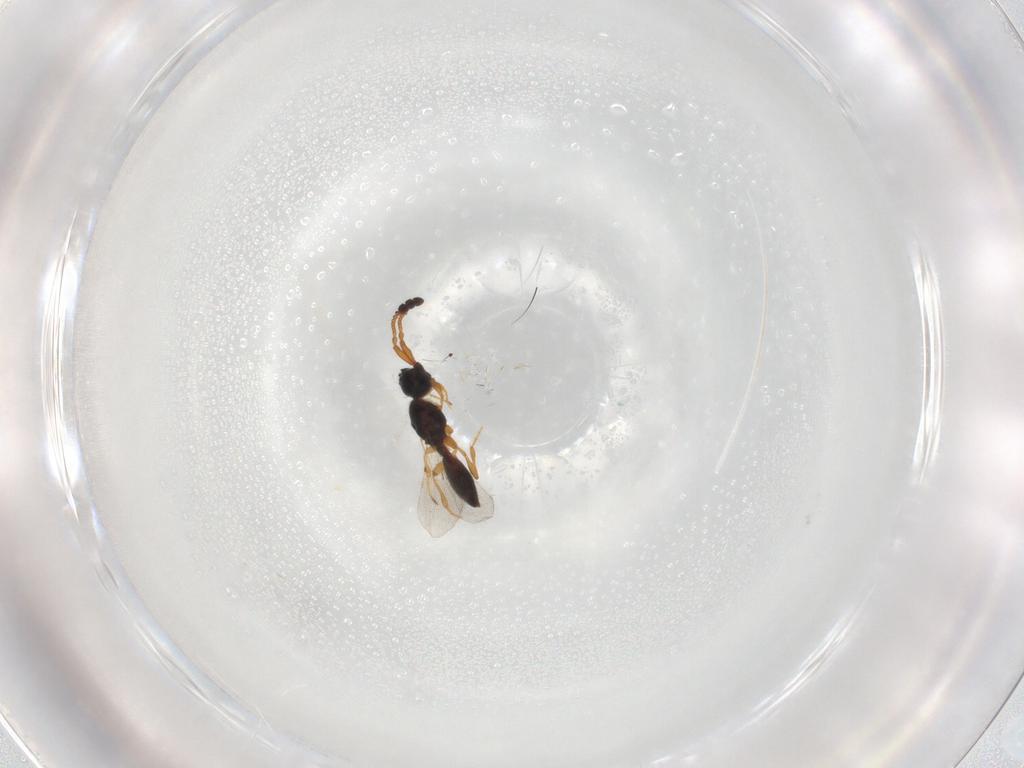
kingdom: Animalia
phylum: Arthropoda
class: Insecta
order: Hymenoptera
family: Diapriidae
